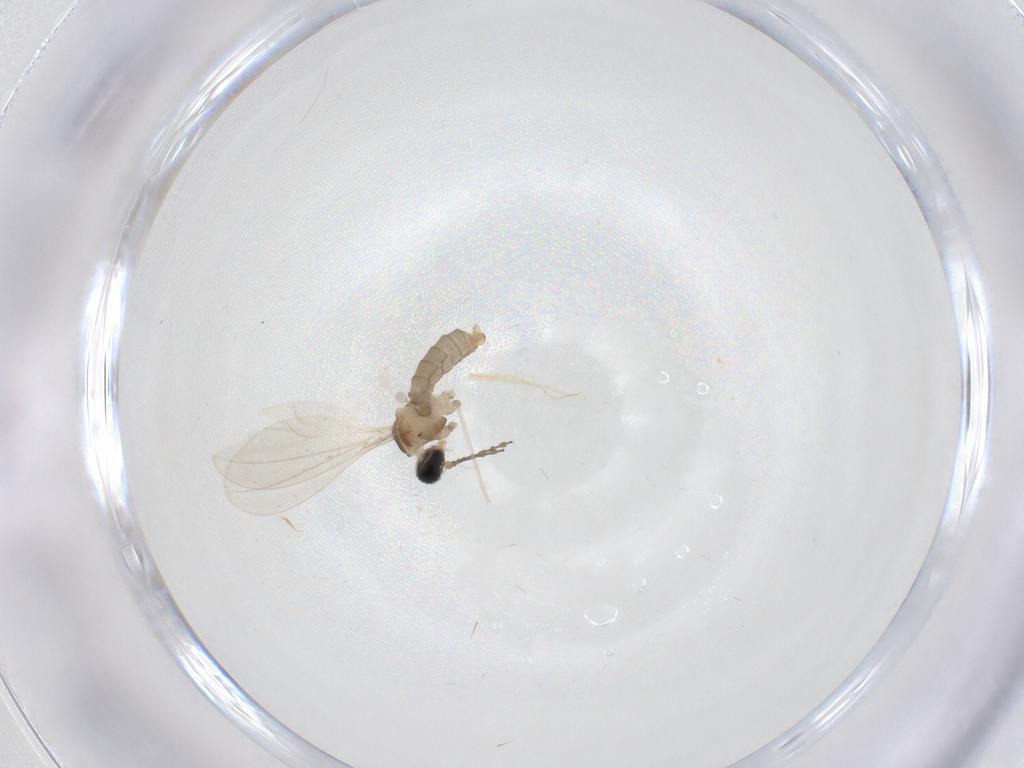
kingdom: Animalia
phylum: Arthropoda
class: Insecta
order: Diptera
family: Chironomidae
